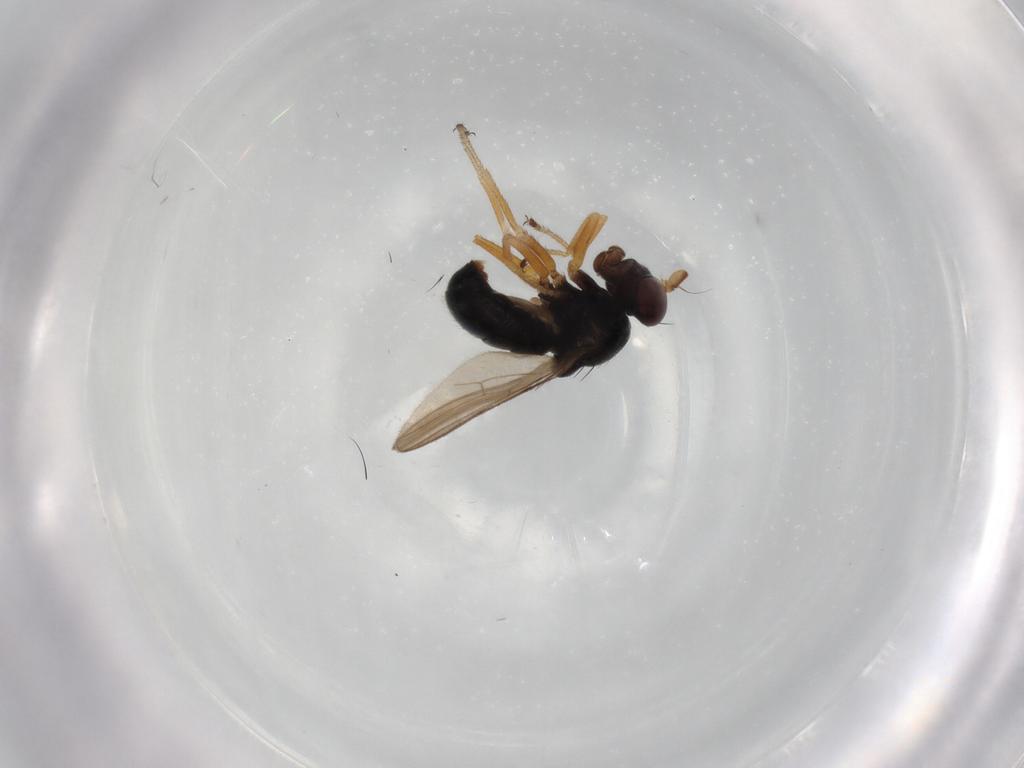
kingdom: Animalia
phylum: Arthropoda
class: Insecta
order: Diptera
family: Ephydridae
